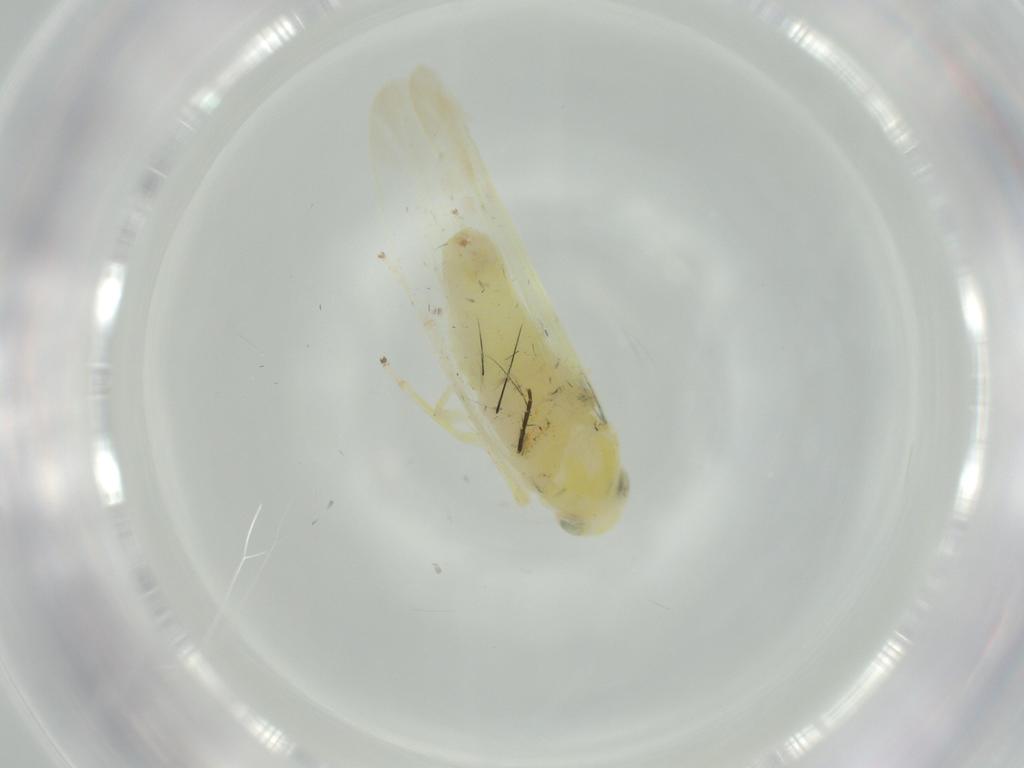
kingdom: Animalia
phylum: Arthropoda
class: Insecta
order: Hemiptera
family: Cicadellidae
